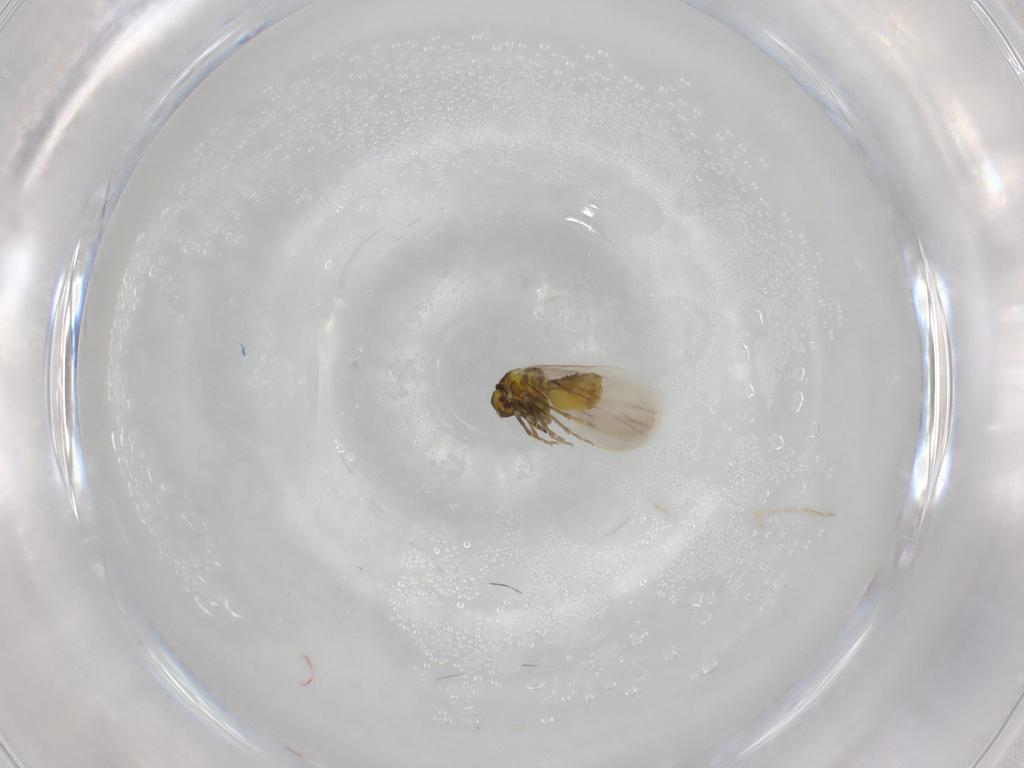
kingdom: Animalia
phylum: Arthropoda
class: Insecta
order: Hemiptera
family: Aleyrodidae
